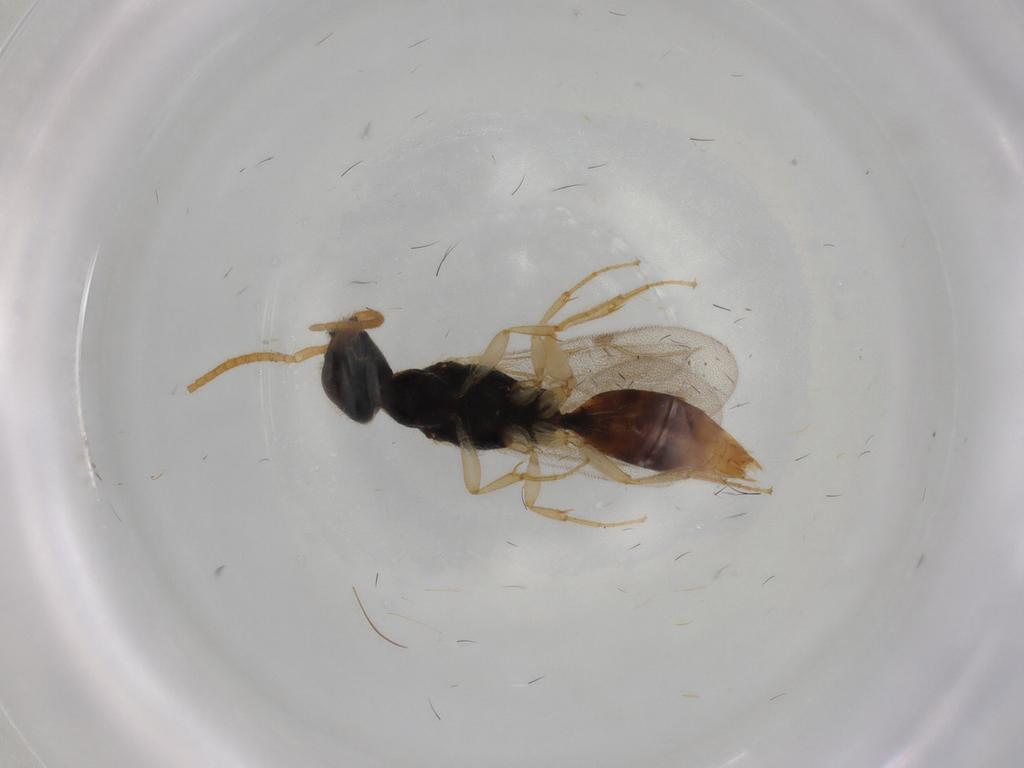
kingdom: Animalia
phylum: Arthropoda
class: Insecta
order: Hymenoptera
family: Bethylidae
